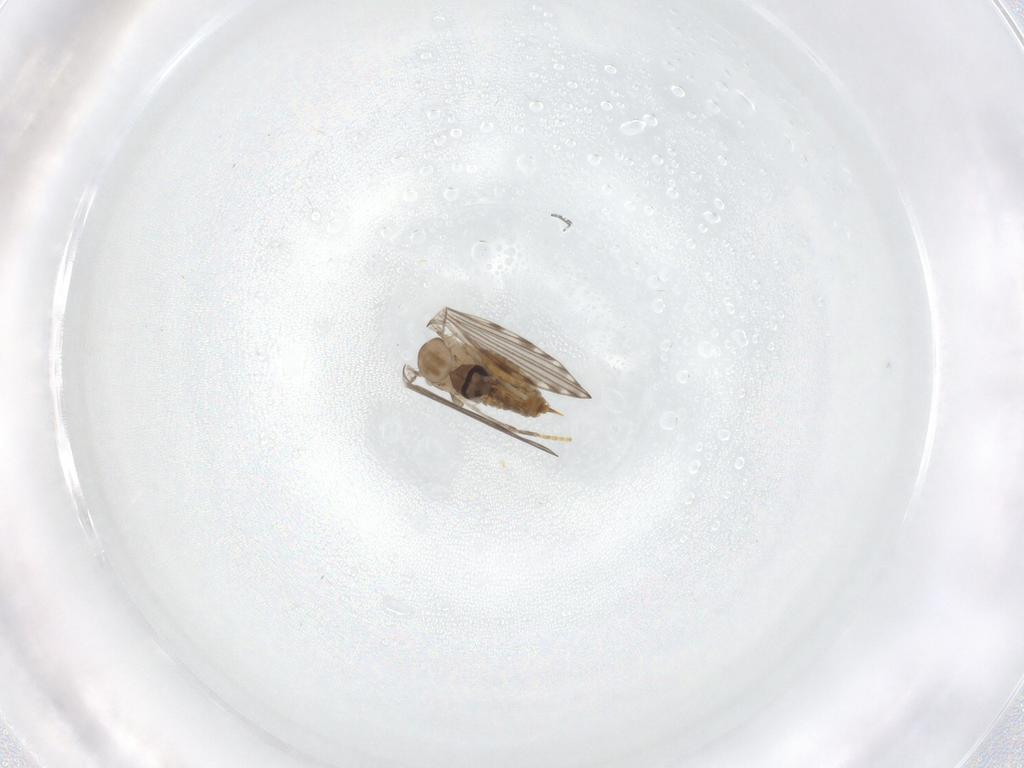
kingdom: Animalia
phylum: Arthropoda
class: Insecta
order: Diptera
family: Psychodidae
